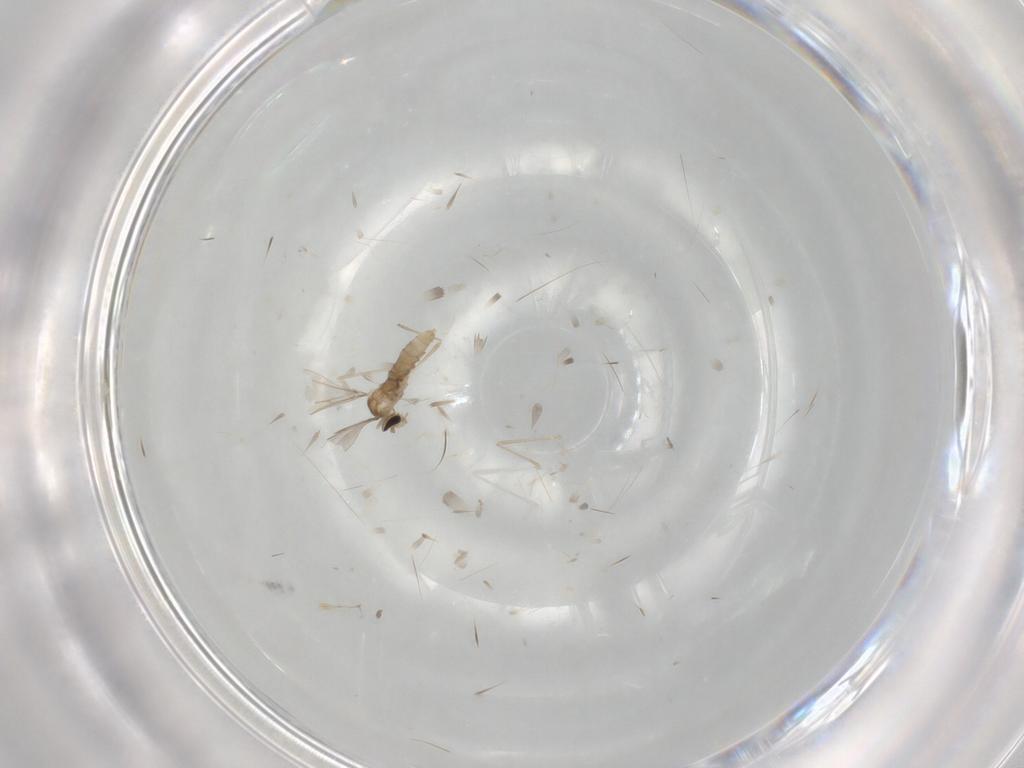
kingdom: Animalia
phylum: Arthropoda
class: Insecta
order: Diptera
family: Cecidomyiidae
